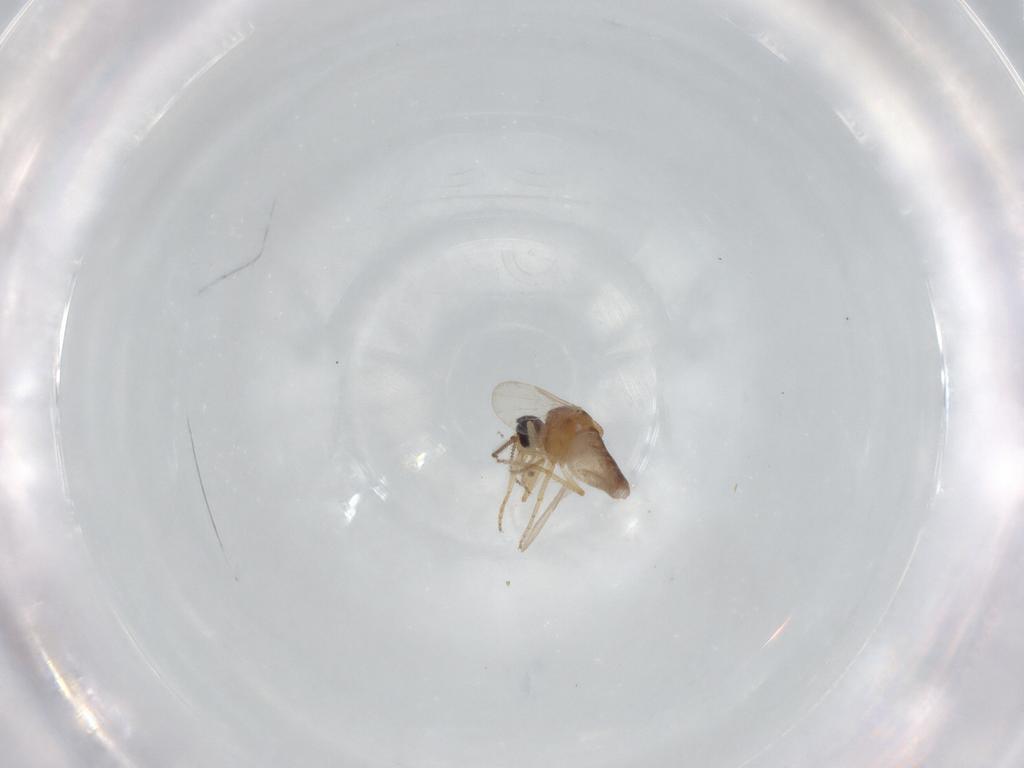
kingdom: Animalia
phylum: Arthropoda
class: Insecta
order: Diptera
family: Ceratopogonidae
